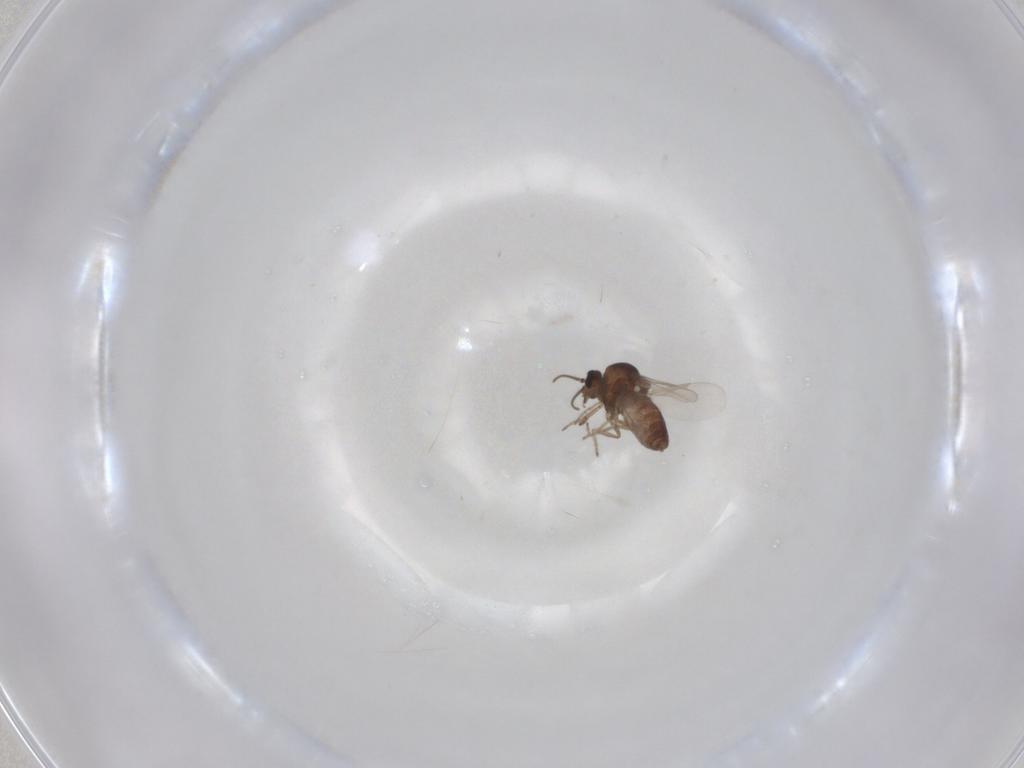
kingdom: Animalia
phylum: Arthropoda
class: Insecta
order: Diptera
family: Ceratopogonidae
